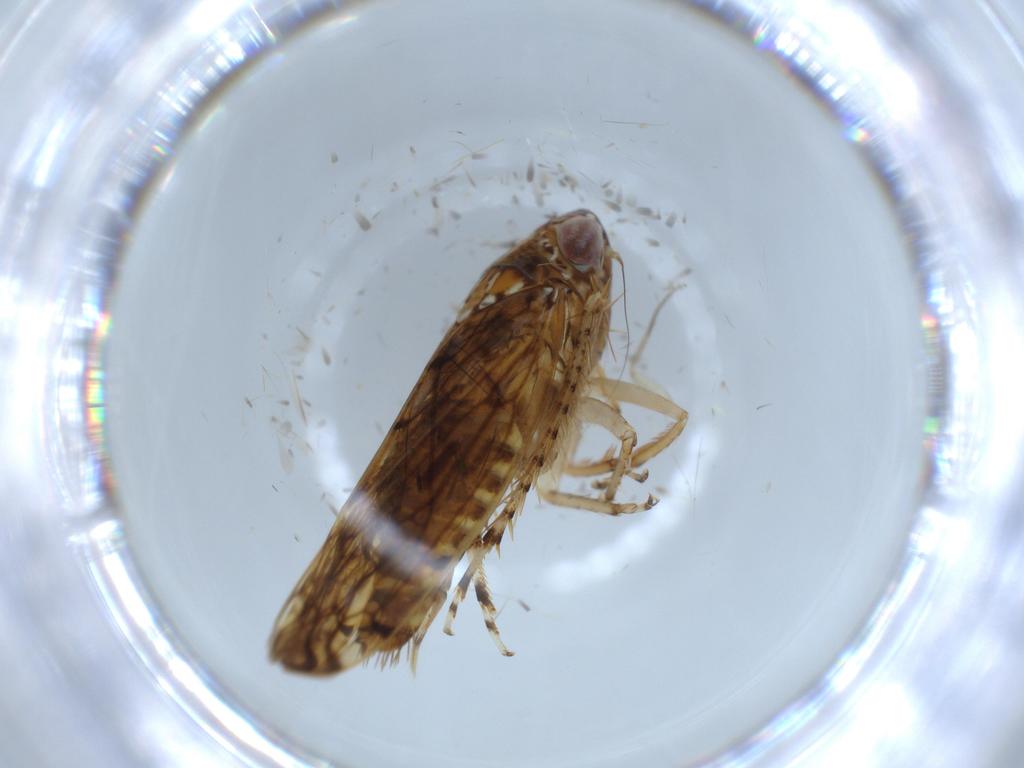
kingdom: Animalia
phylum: Arthropoda
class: Insecta
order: Hemiptera
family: Cicadellidae
